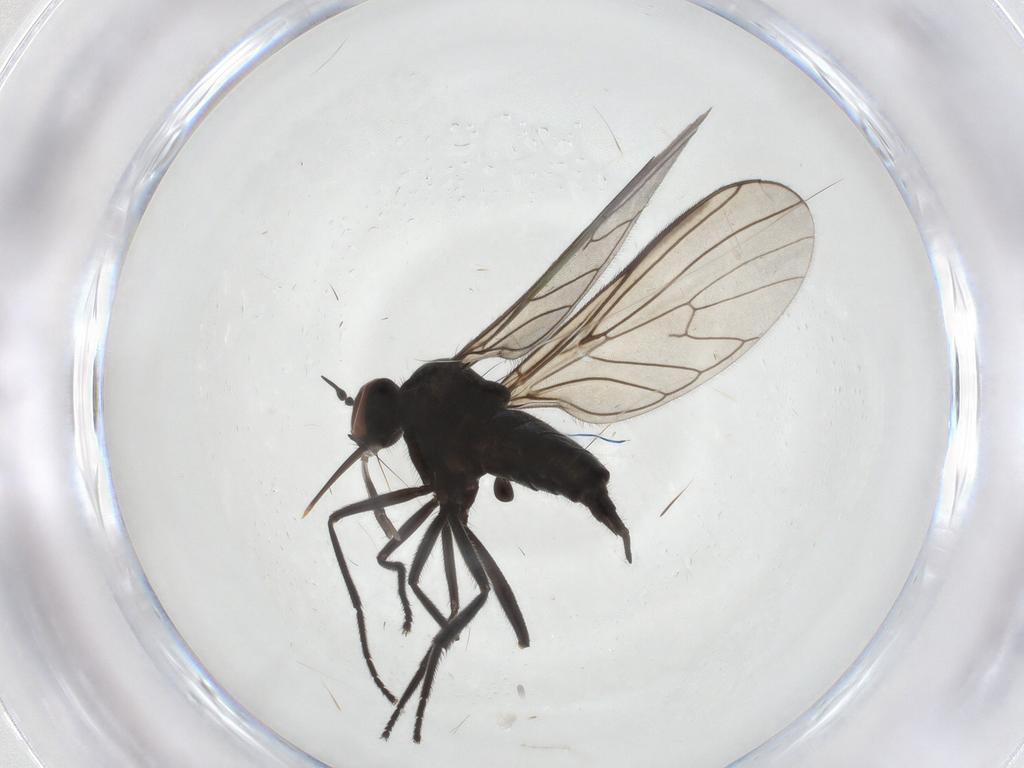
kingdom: Animalia
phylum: Arthropoda
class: Insecta
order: Diptera
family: Empididae
